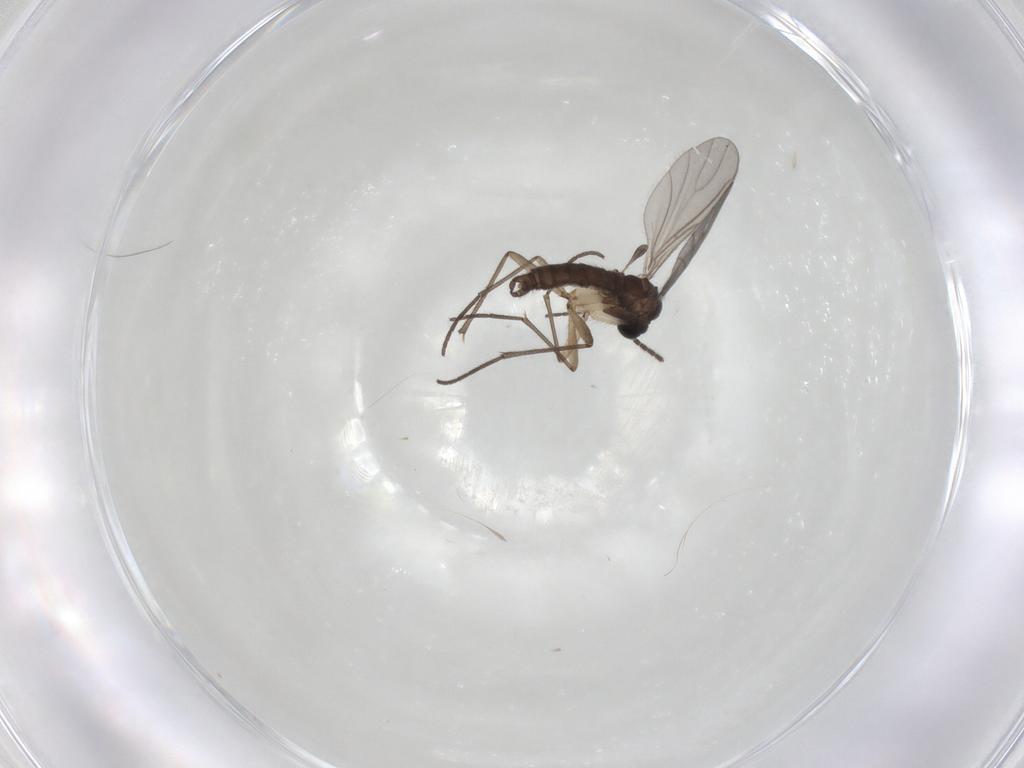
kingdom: Animalia
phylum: Arthropoda
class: Insecta
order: Diptera
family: Sciaridae
